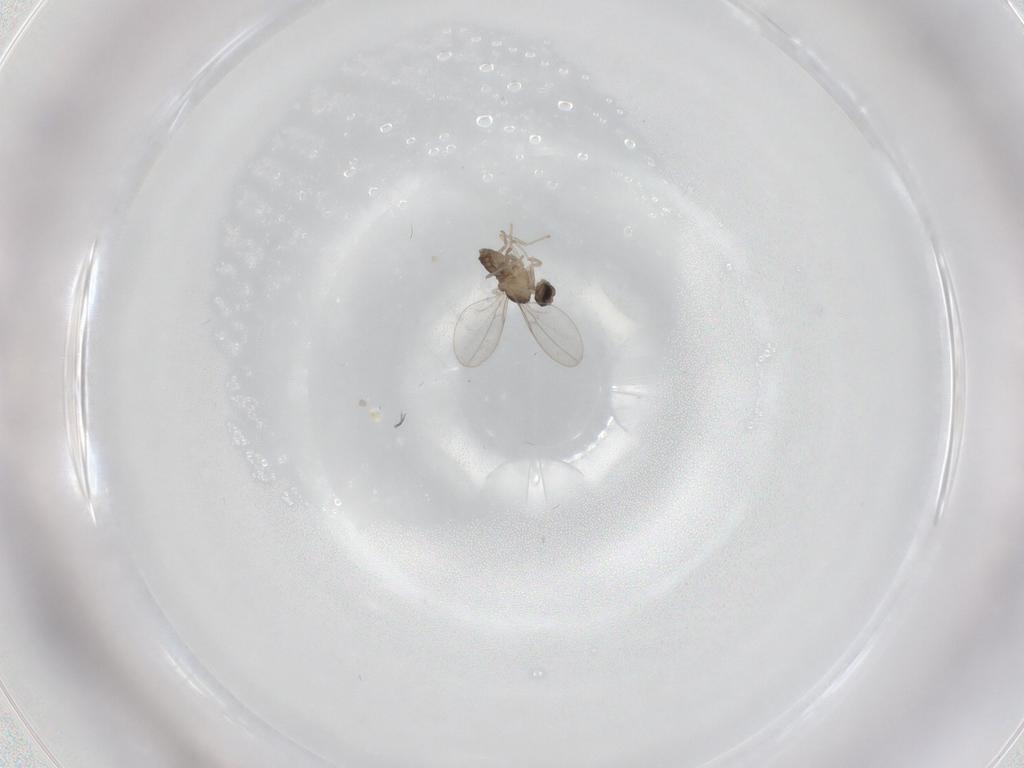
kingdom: Animalia
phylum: Arthropoda
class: Insecta
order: Diptera
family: Cecidomyiidae
